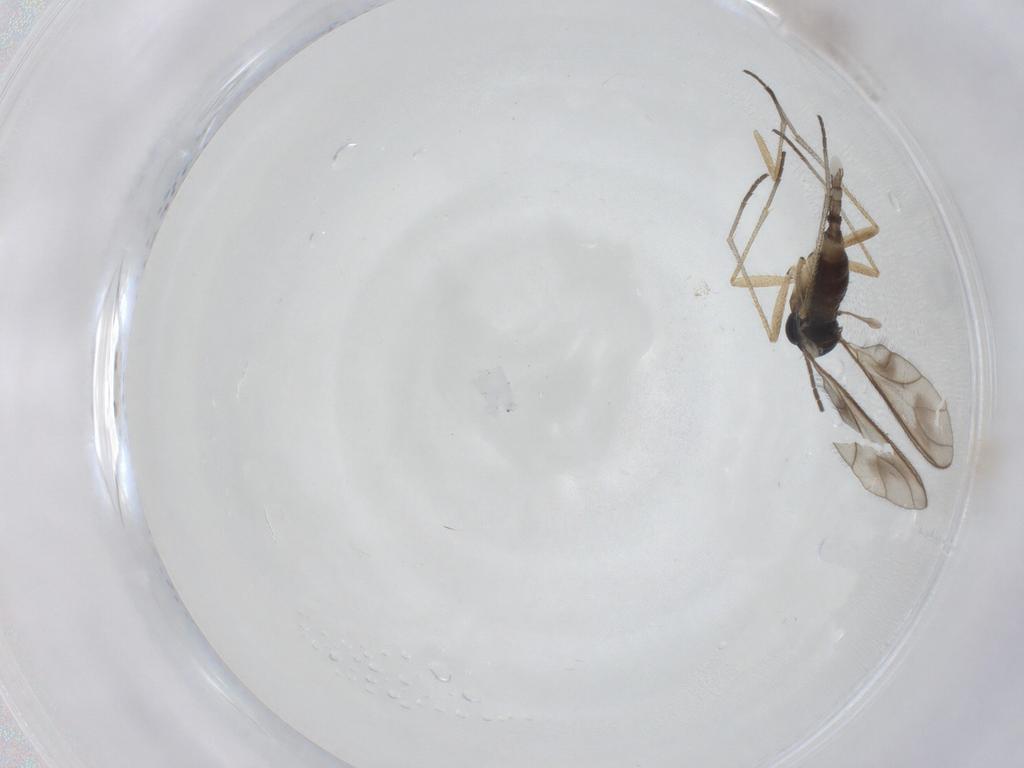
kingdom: Animalia
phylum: Arthropoda
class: Insecta
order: Diptera
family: Sciaridae
